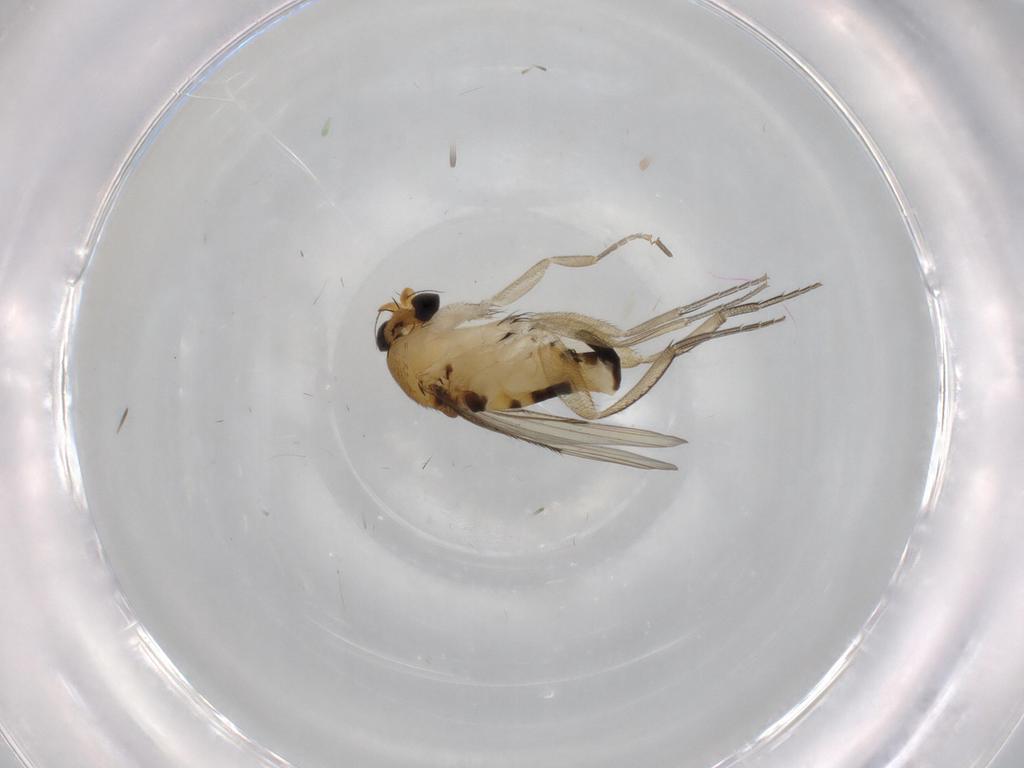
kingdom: Animalia
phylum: Arthropoda
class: Insecta
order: Diptera
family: Phoridae
